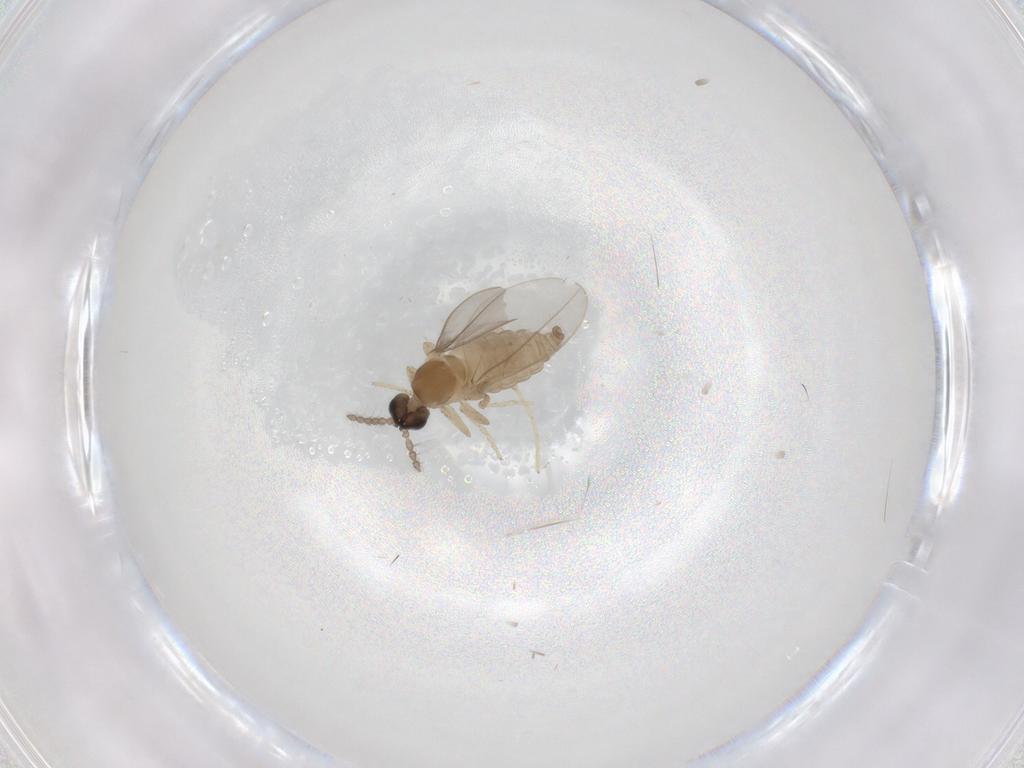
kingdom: Animalia
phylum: Arthropoda
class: Insecta
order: Diptera
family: Cecidomyiidae
